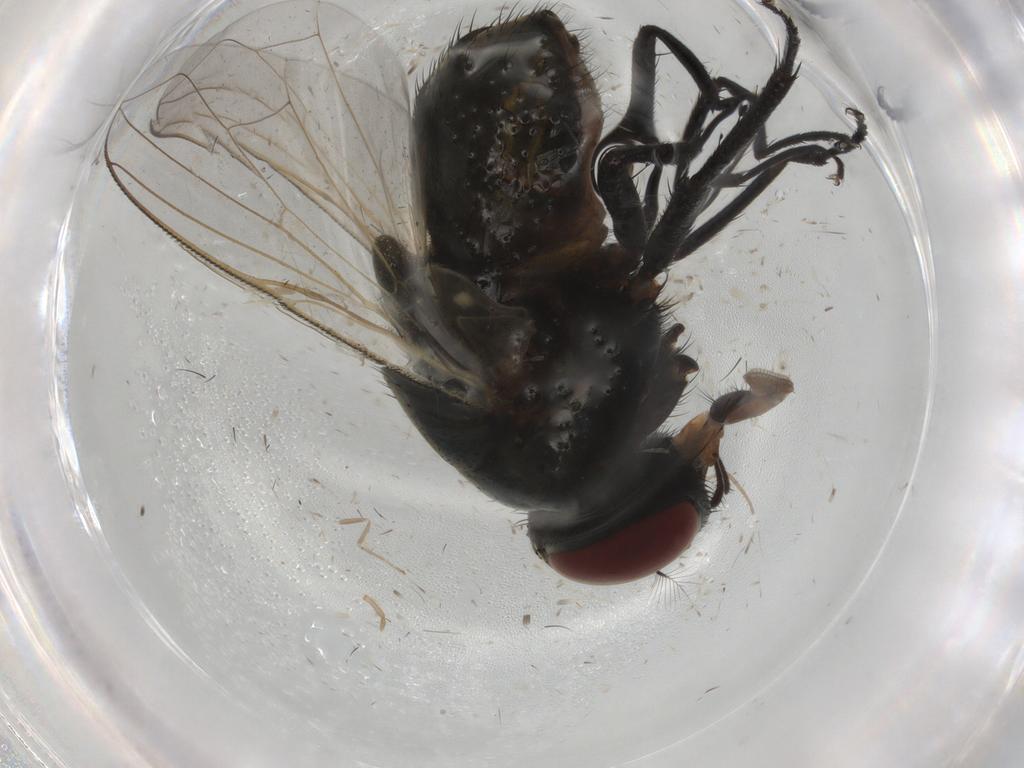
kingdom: Animalia
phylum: Arthropoda
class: Insecta
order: Diptera
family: Muscidae
